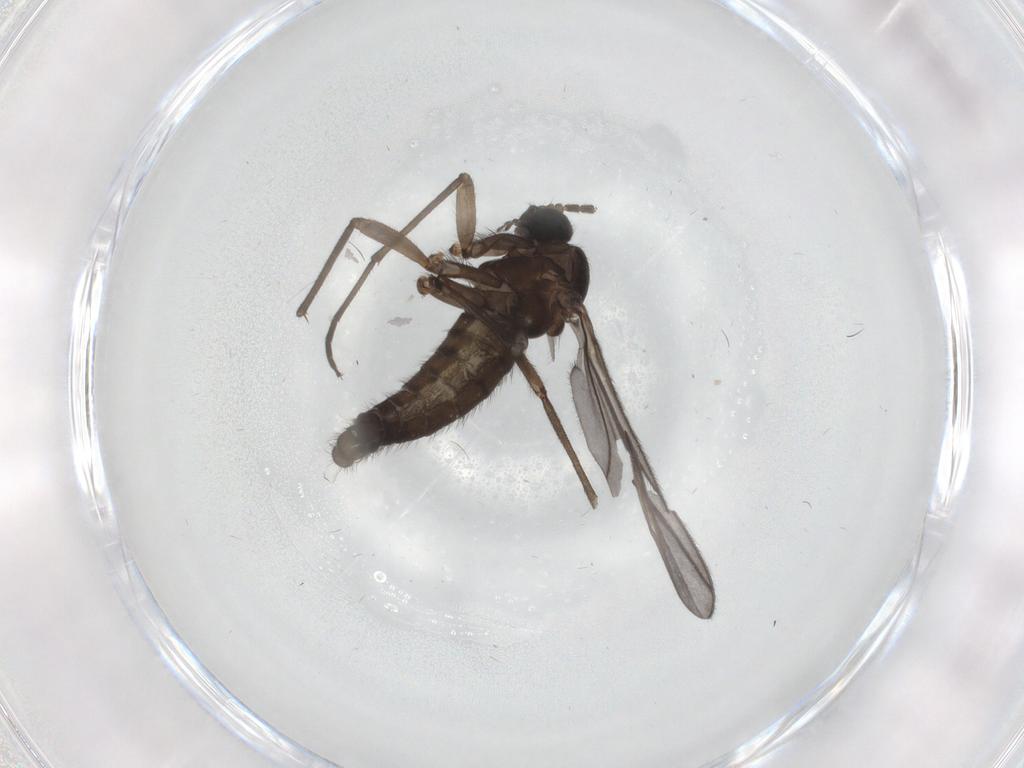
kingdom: Animalia
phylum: Arthropoda
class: Insecta
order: Diptera
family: Sciaridae
